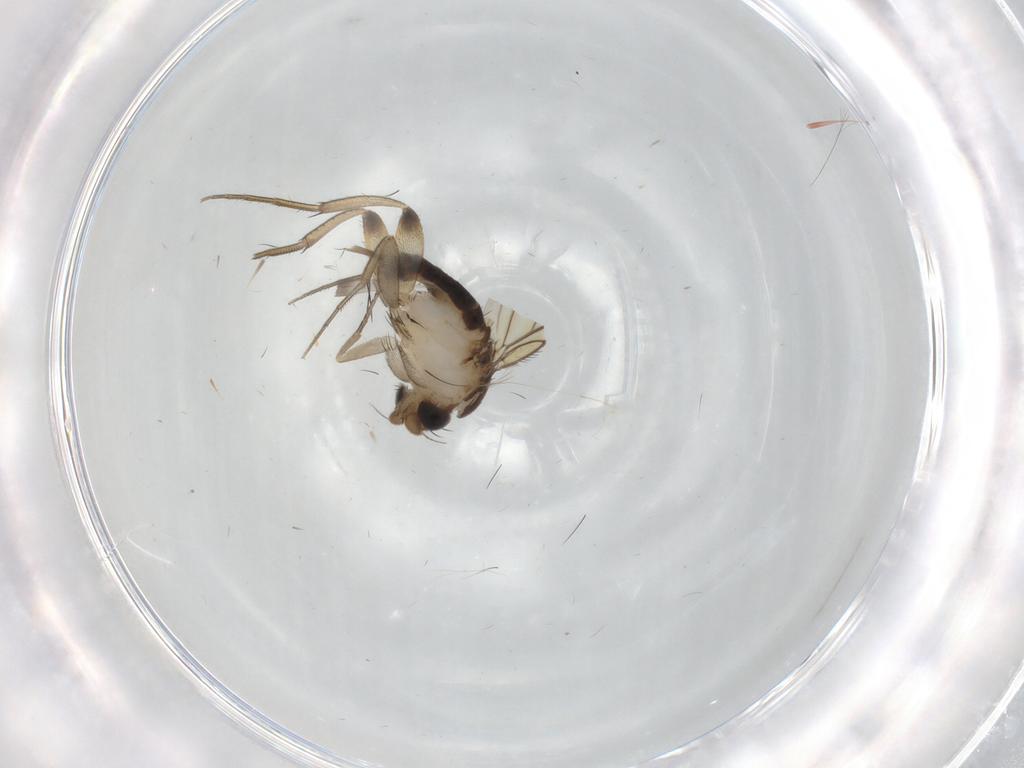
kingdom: Animalia
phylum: Arthropoda
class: Insecta
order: Diptera
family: Phoridae
